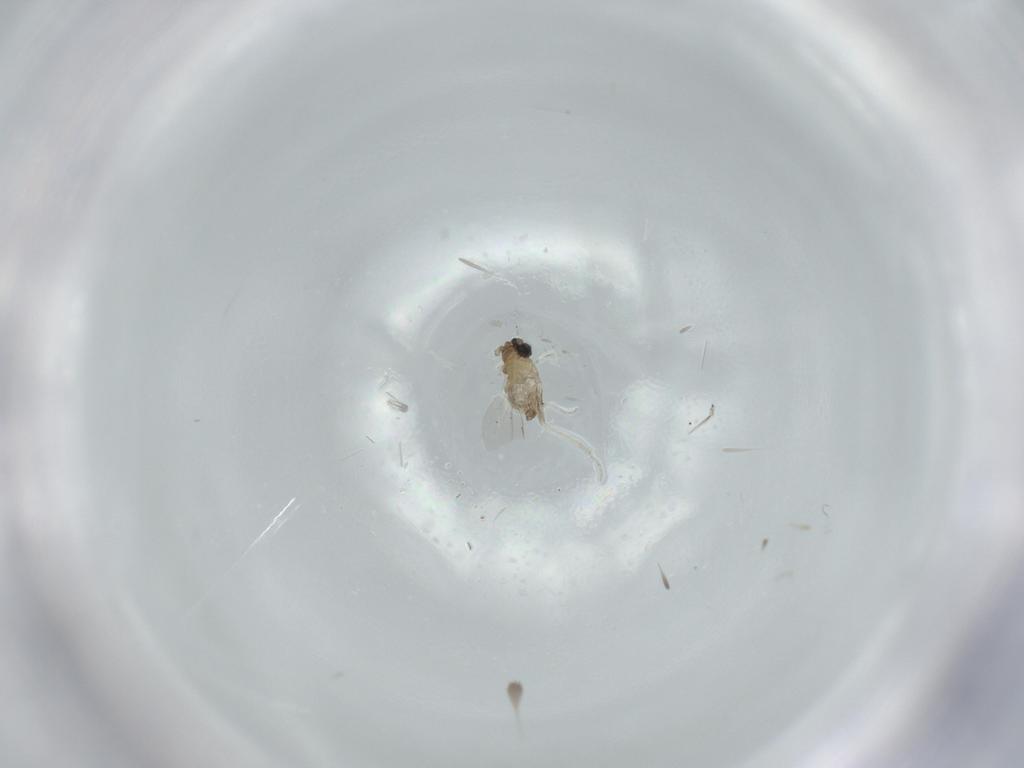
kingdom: Animalia
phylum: Arthropoda
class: Insecta
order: Diptera
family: Cecidomyiidae
